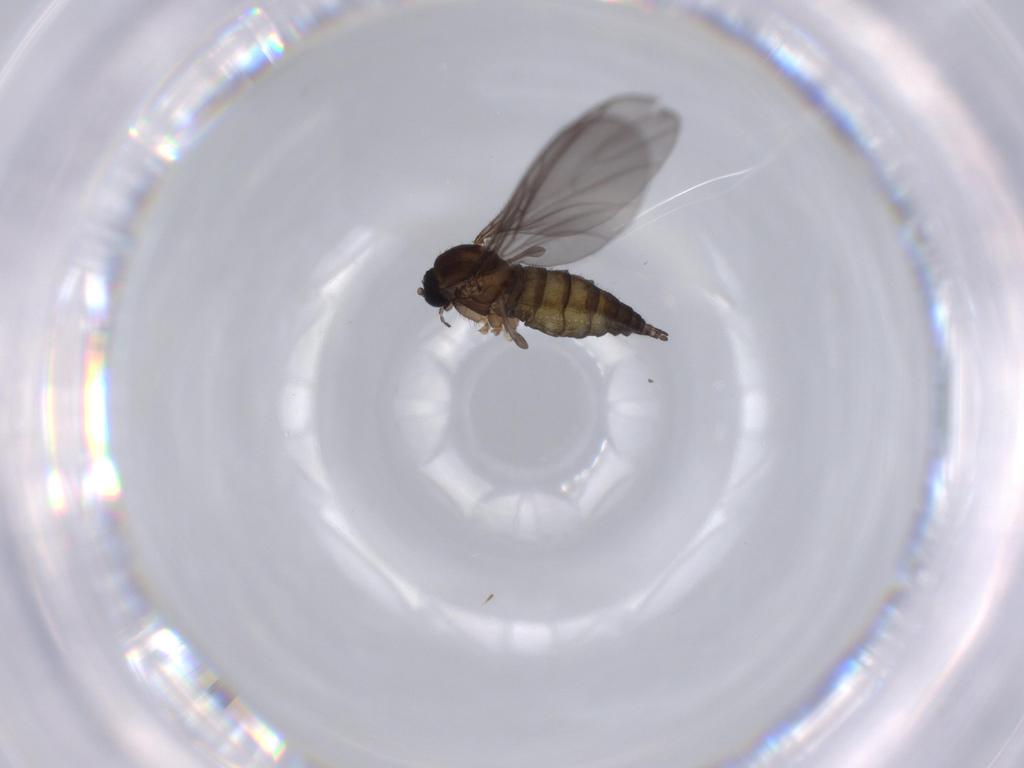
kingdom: Animalia
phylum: Arthropoda
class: Insecta
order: Diptera
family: Sciaridae
